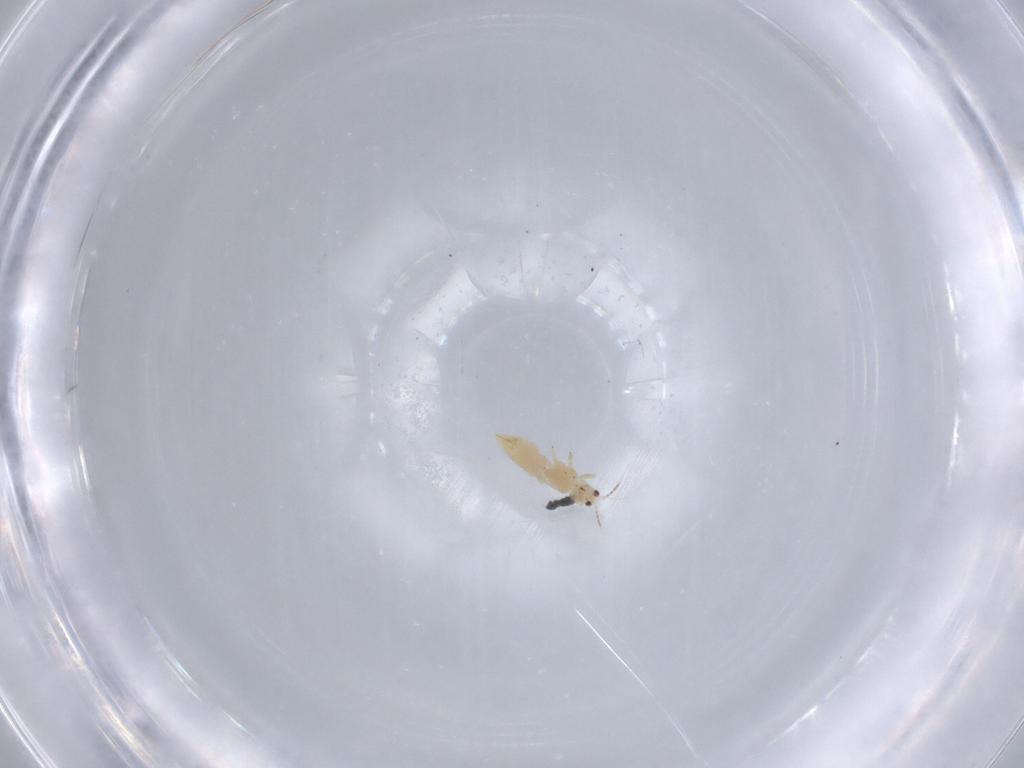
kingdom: Animalia
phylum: Arthropoda
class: Insecta
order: Thysanoptera
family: Thripidae
